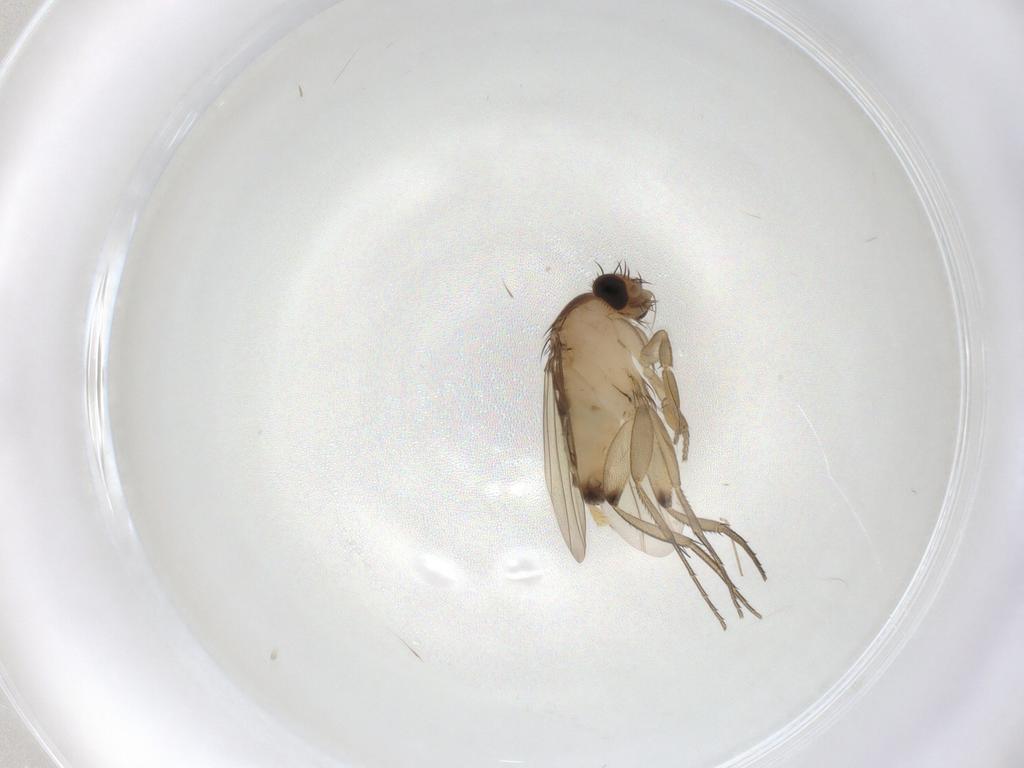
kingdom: Animalia
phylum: Arthropoda
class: Insecta
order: Diptera
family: Phoridae
